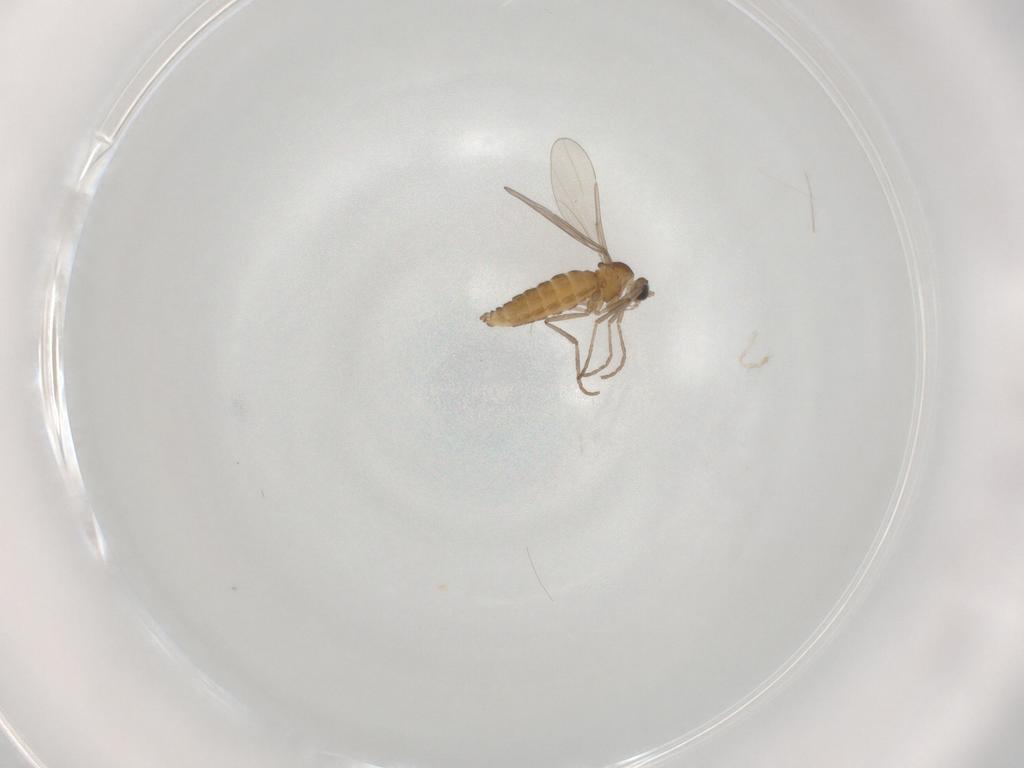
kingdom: Animalia
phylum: Arthropoda
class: Insecta
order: Diptera
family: Cecidomyiidae
